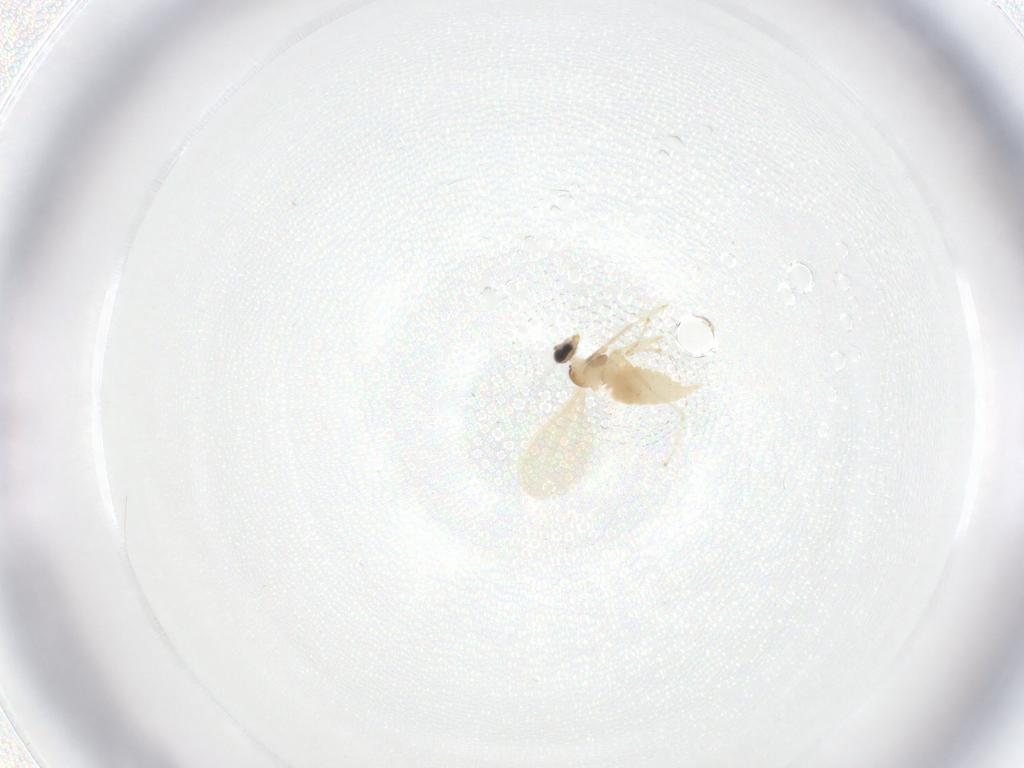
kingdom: Animalia
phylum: Arthropoda
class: Insecta
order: Diptera
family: Cecidomyiidae
